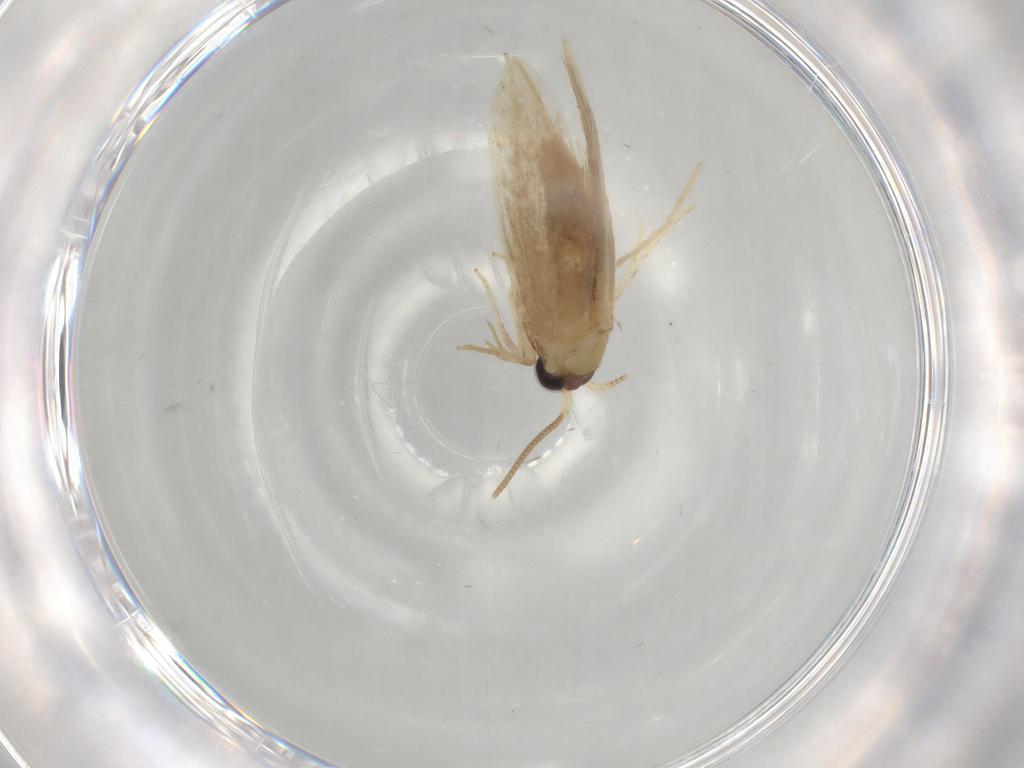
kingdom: Animalia
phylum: Arthropoda
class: Insecta
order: Lepidoptera
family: Nepticulidae
